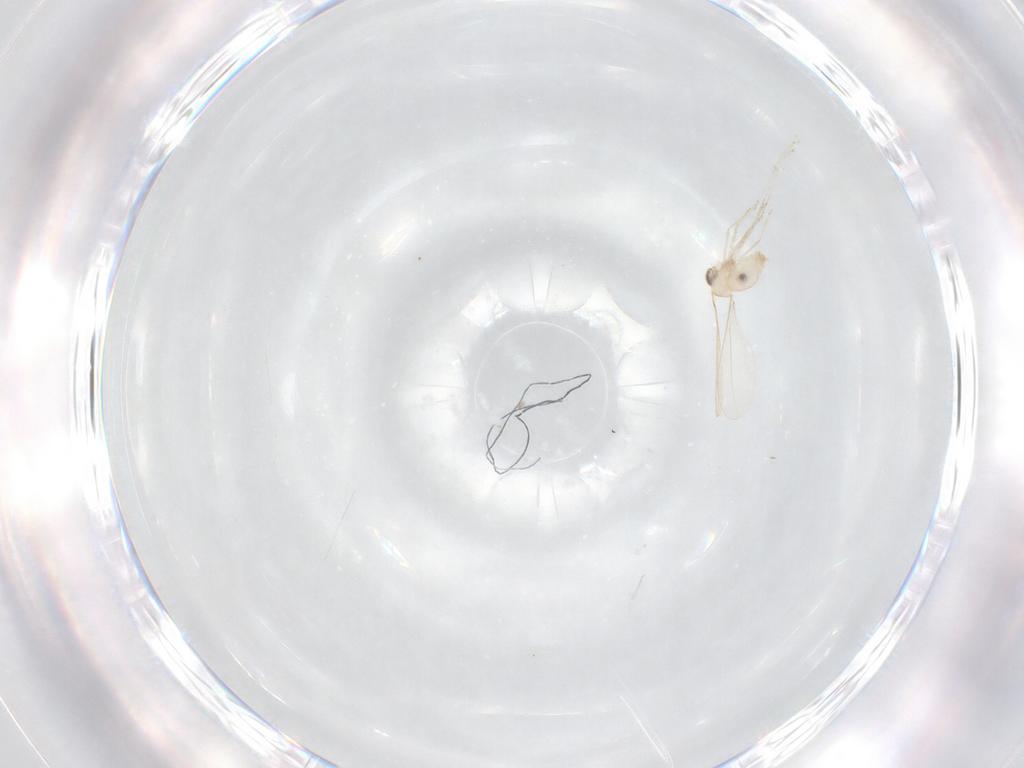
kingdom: Animalia
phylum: Arthropoda
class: Insecta
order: Diptera
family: Cecidomyiidae
